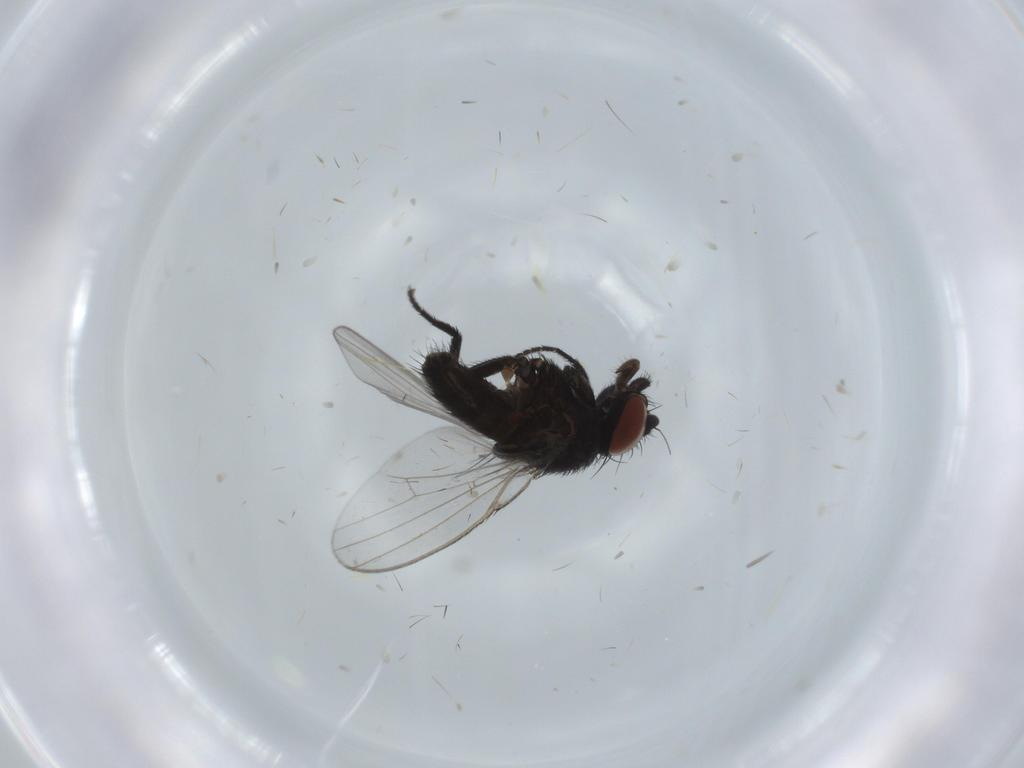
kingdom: Animalia
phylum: Arthropoda
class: Insecta
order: Diptera
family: Milichiidae
